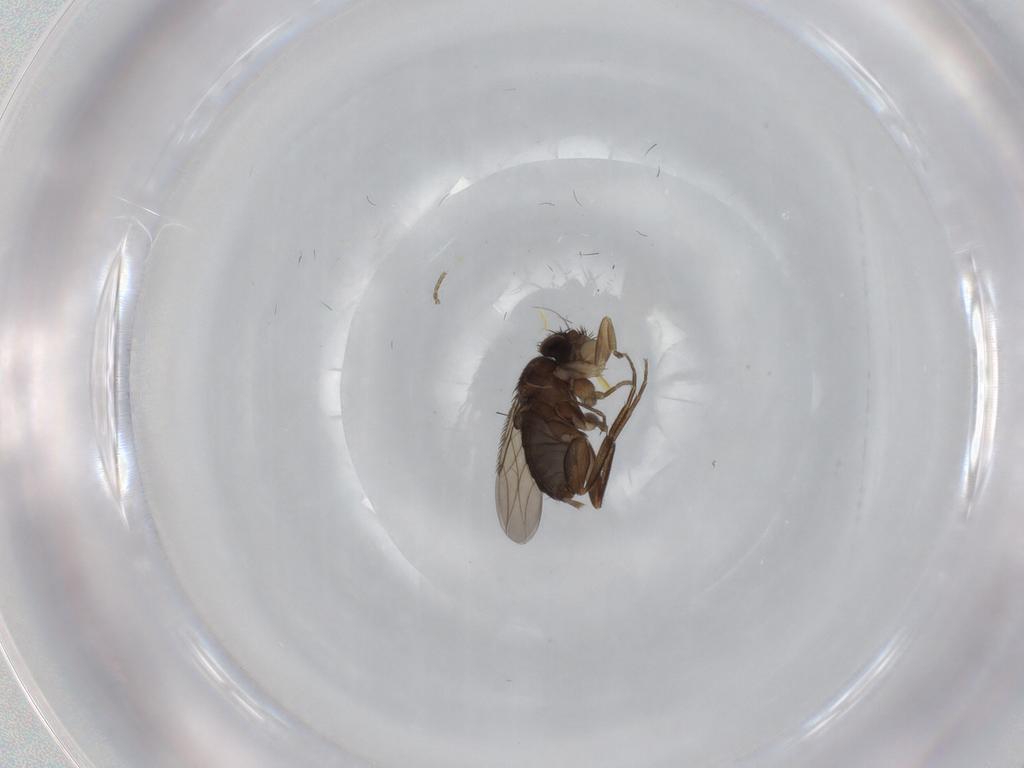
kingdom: Animalia
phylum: Arthropoda
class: Insecta
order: Diptera
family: Phoridae
